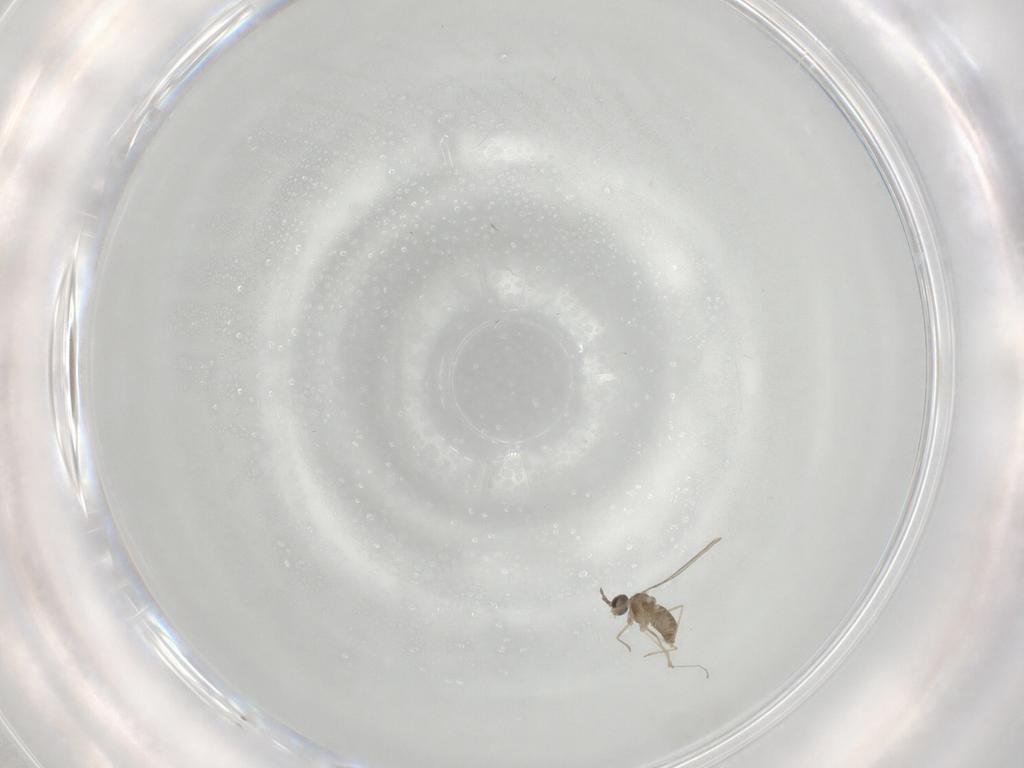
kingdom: Animalia
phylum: Arthropoda
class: Insecta
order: Diptera
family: Cecidomyiidae
